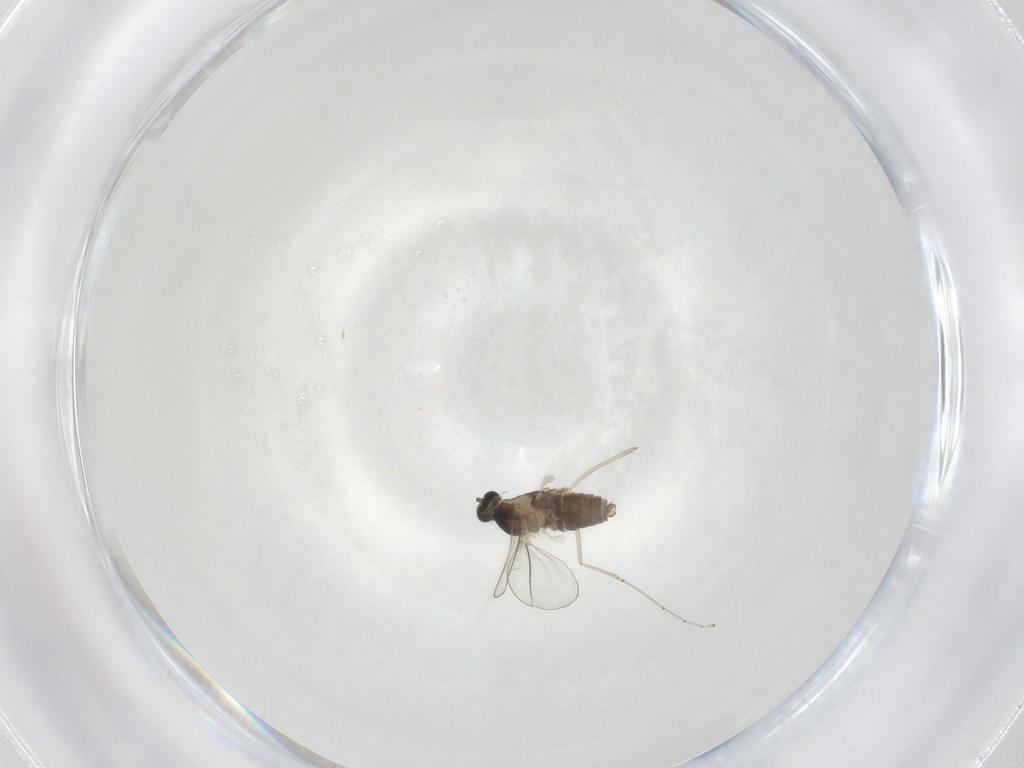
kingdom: Animalia
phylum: Arthropoda
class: Insecta
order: Diptera
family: Cecidomyiidae
